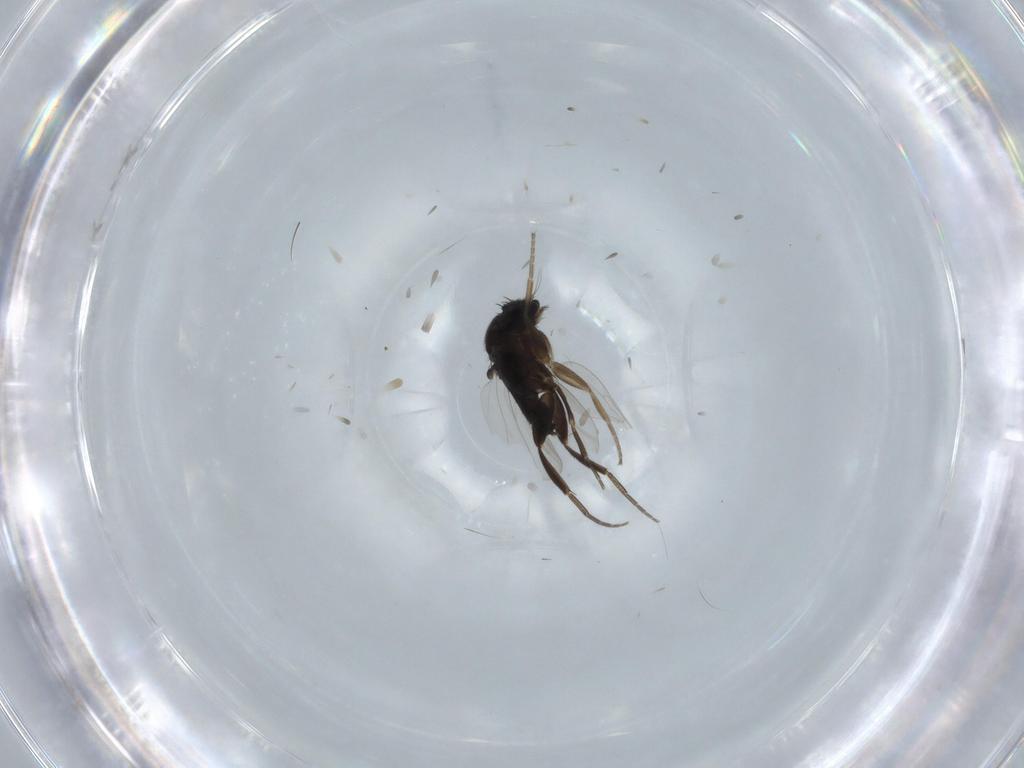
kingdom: Animalia
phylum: Arthropoda
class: Insecta
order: Diptera
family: Phoridae
